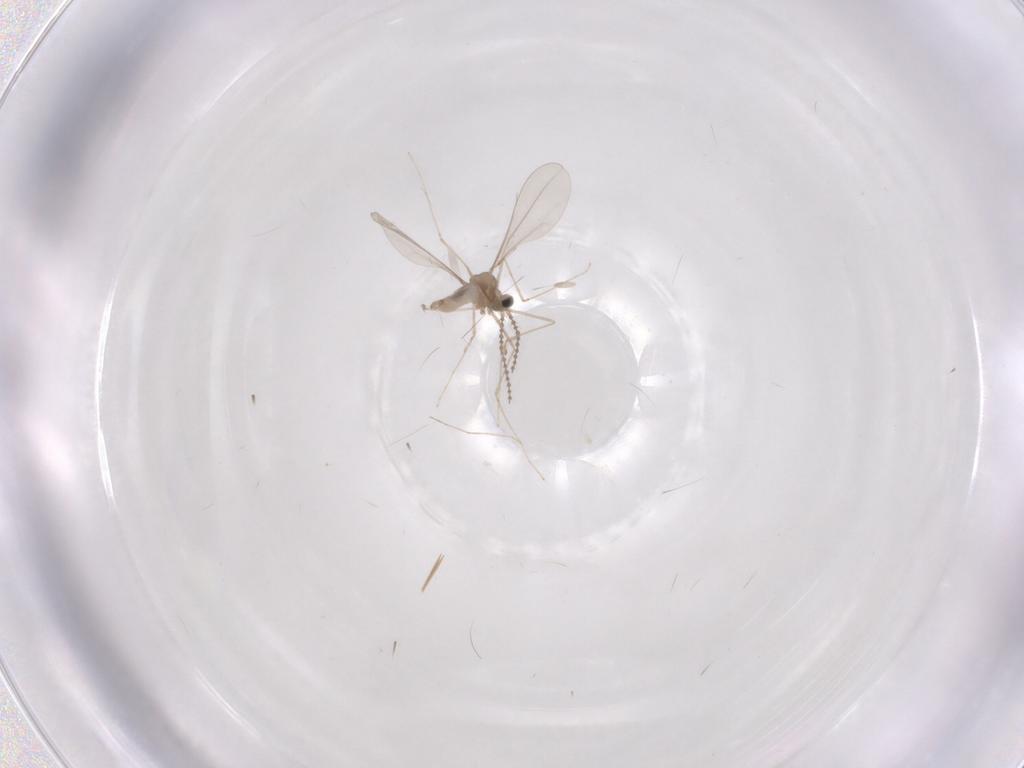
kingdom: Animalia
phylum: Arthropoda
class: Insecta
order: Diptera
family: Cecidomyiidae
